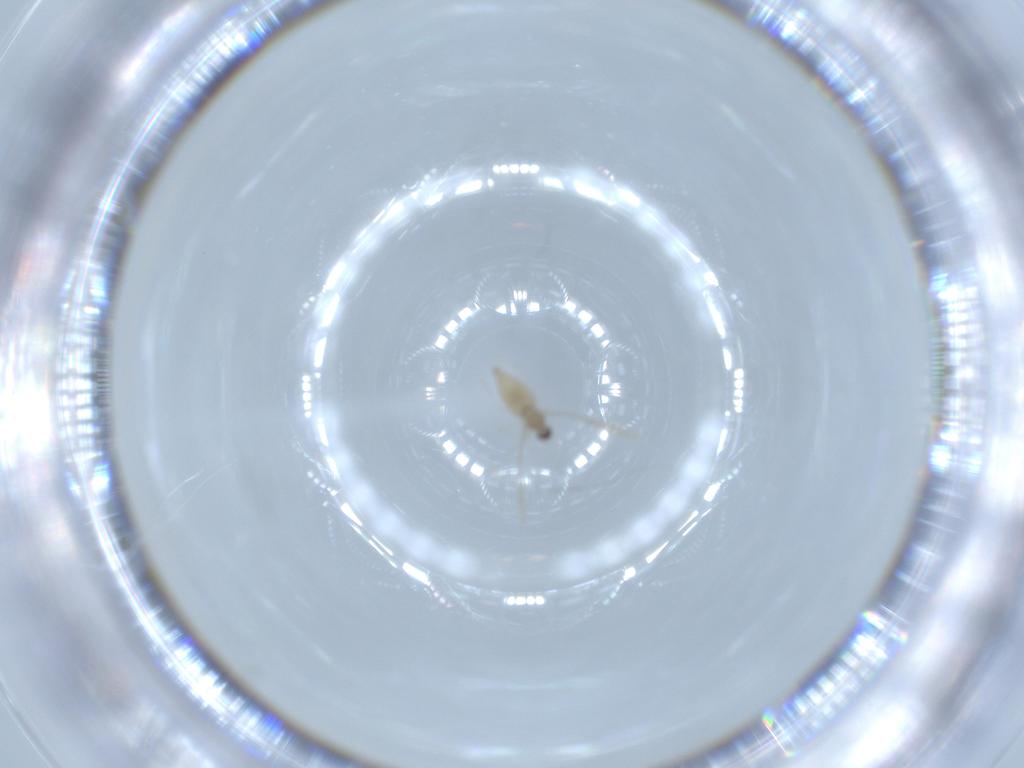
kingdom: Animalia
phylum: Arthropoda
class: Insecta
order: Diptera
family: Cecidomyiidae
